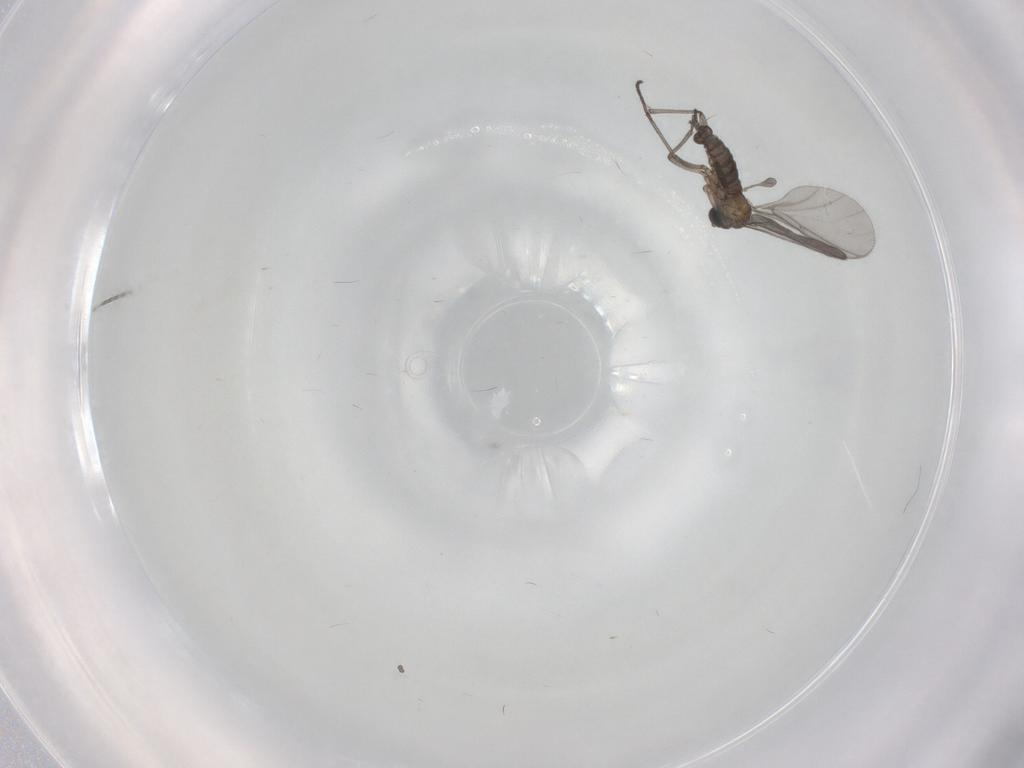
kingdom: Animalia
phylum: Arthropoda
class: Insecta
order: Diptera
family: Sciaridae
